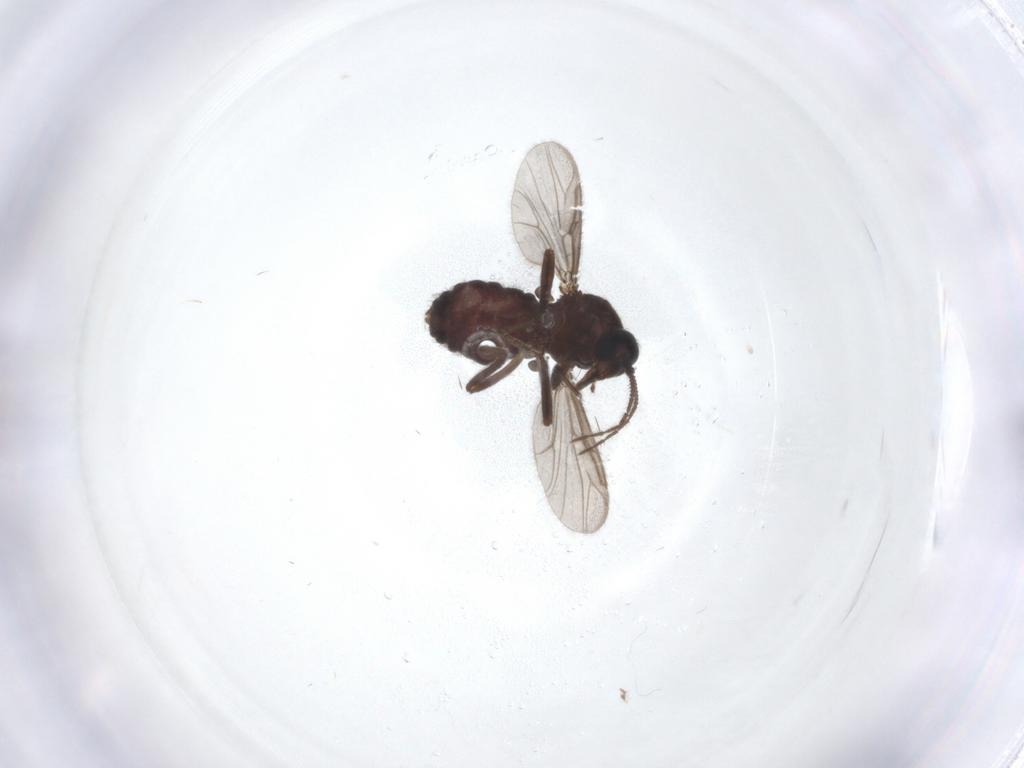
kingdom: Animalia
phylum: Arthropoda
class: Insecta
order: Diptera
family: Ceratopogonidae
